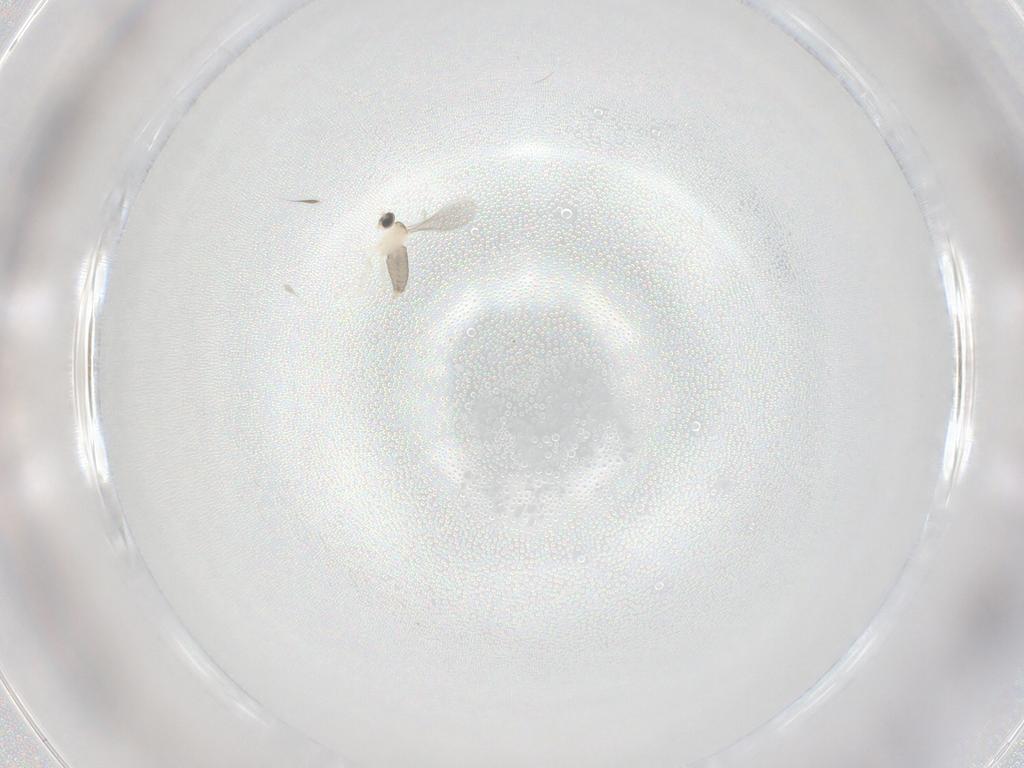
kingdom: Animalia
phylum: Arthropoda
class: Insecta
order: Diptera
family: Cecidomyiidae
